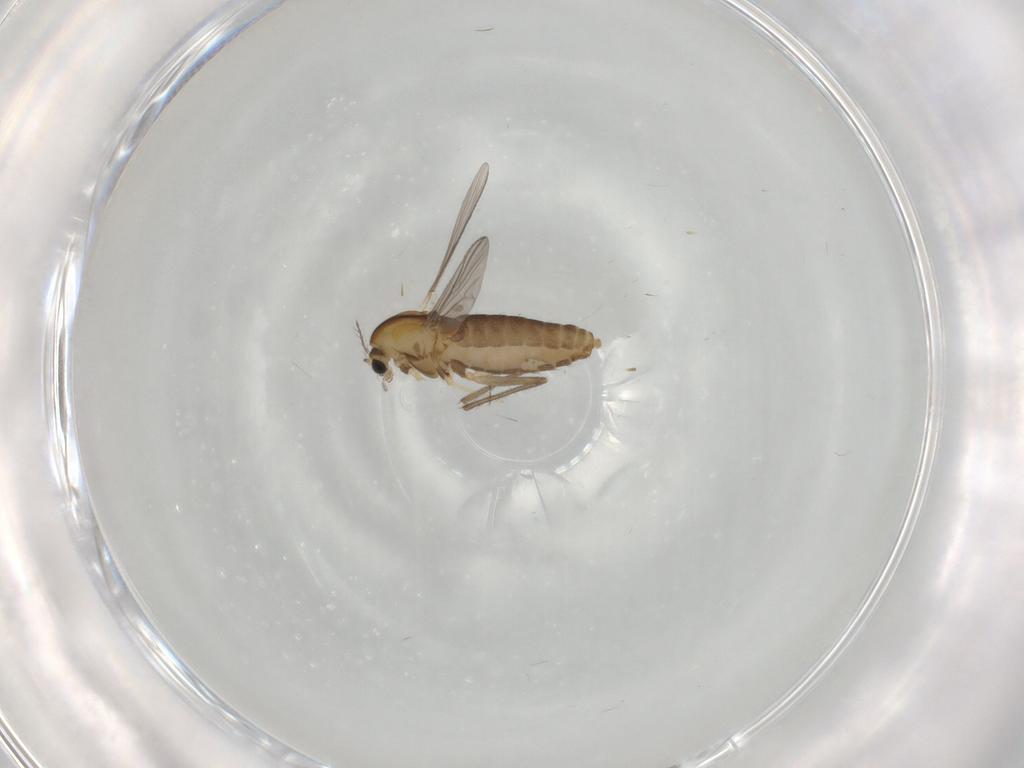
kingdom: Animalia
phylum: Arthropoda
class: Insecta
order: Diptera
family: Chironomidae
